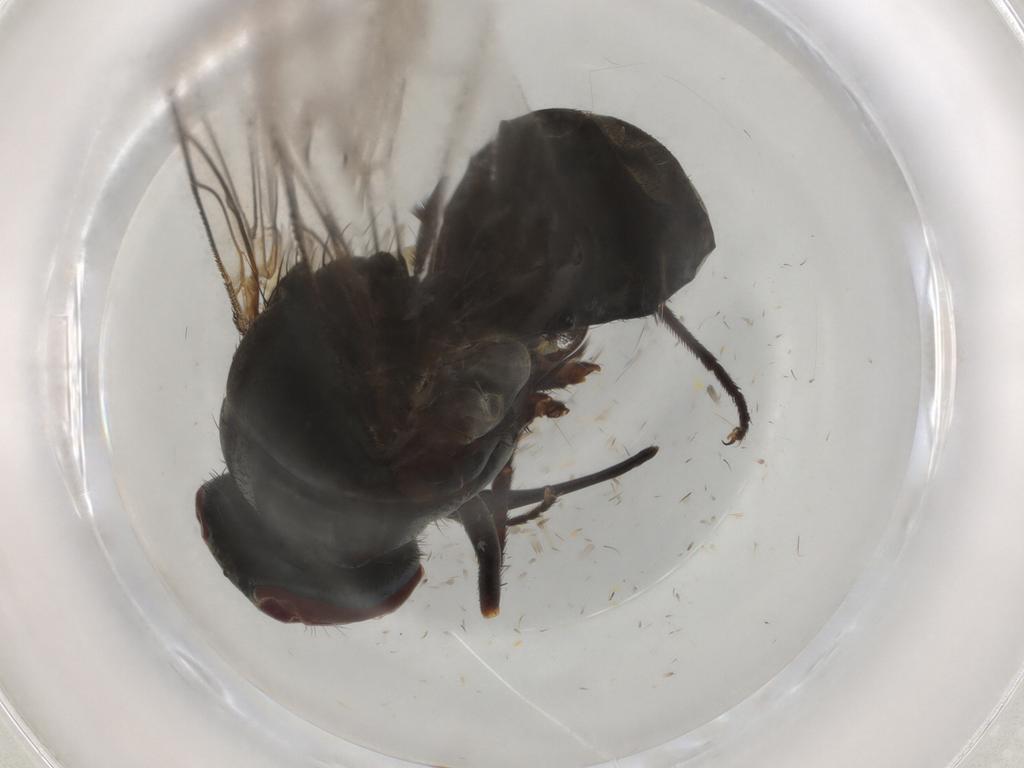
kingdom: Animalia
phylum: Arthropoda
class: Insecta
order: Diptera
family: Chironomidae
